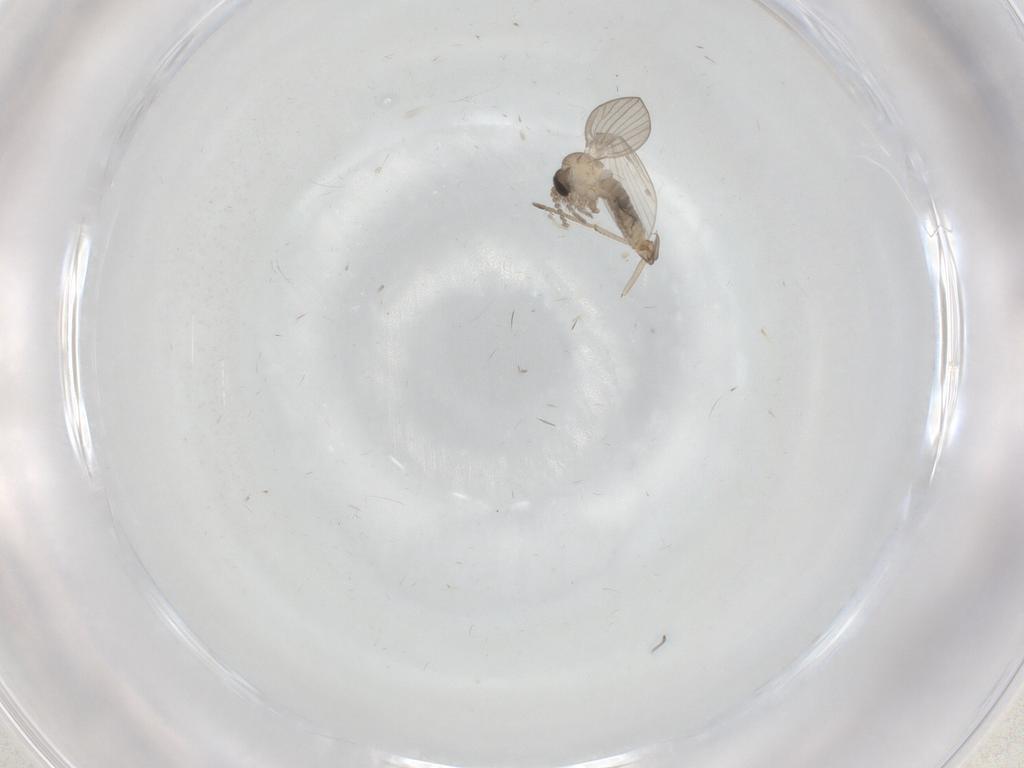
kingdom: Animalia
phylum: Arthropoda
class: Insecta
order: Diptera
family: Psychodidae
